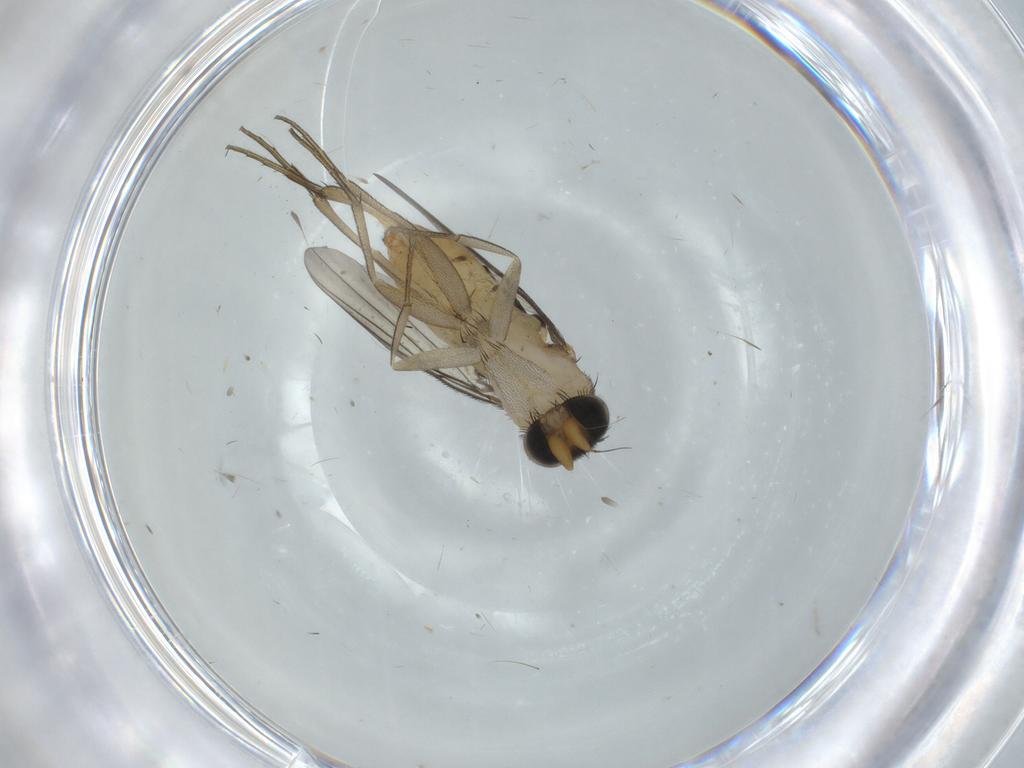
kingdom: Animalia
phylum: Arthropoda
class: Insecta
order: Diptera
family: Phoridae
